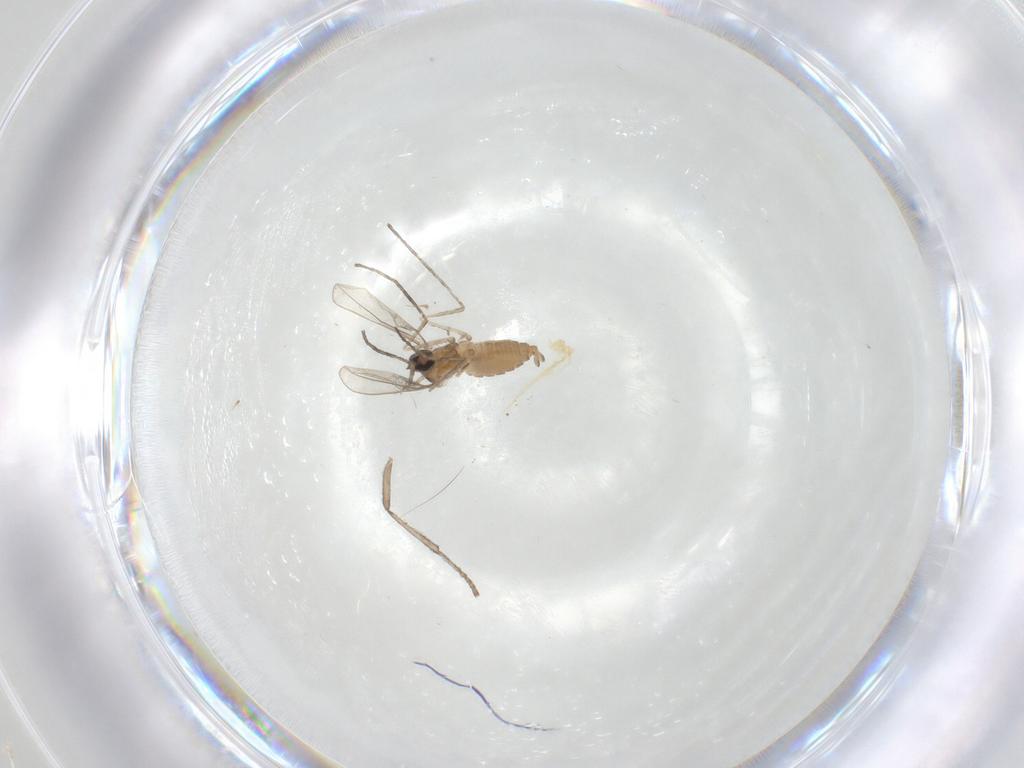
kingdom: Animalia
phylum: Arthropoda
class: Insecta
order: Diptera
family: Cecidomyiidae
